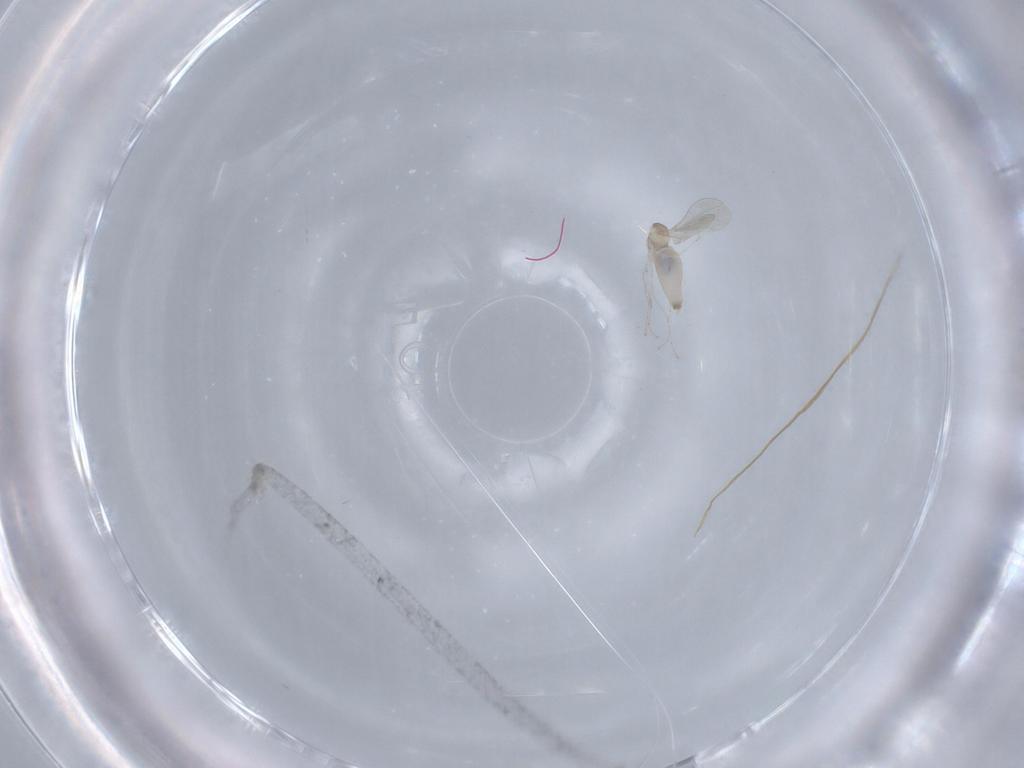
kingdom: Animalia
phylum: Arthropoda
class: Insecta
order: Diptera
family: Cecidomyiidae
